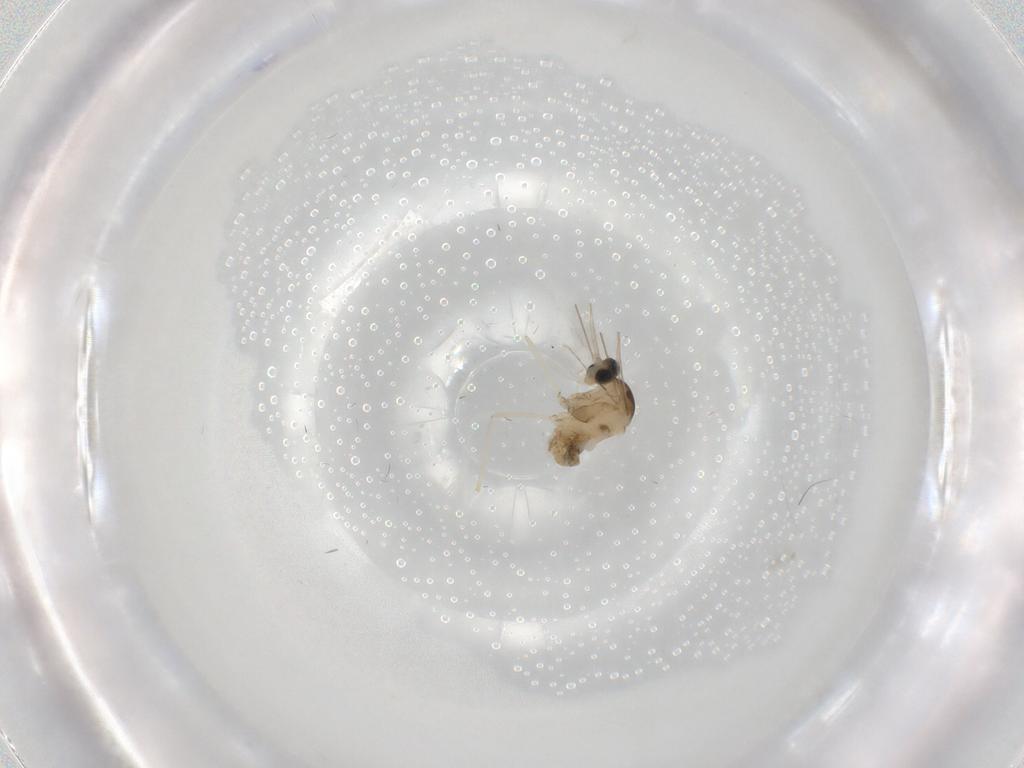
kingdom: Animalia
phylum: Arthropoda
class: Insecta
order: Diptera
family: Cecidomyiidae
